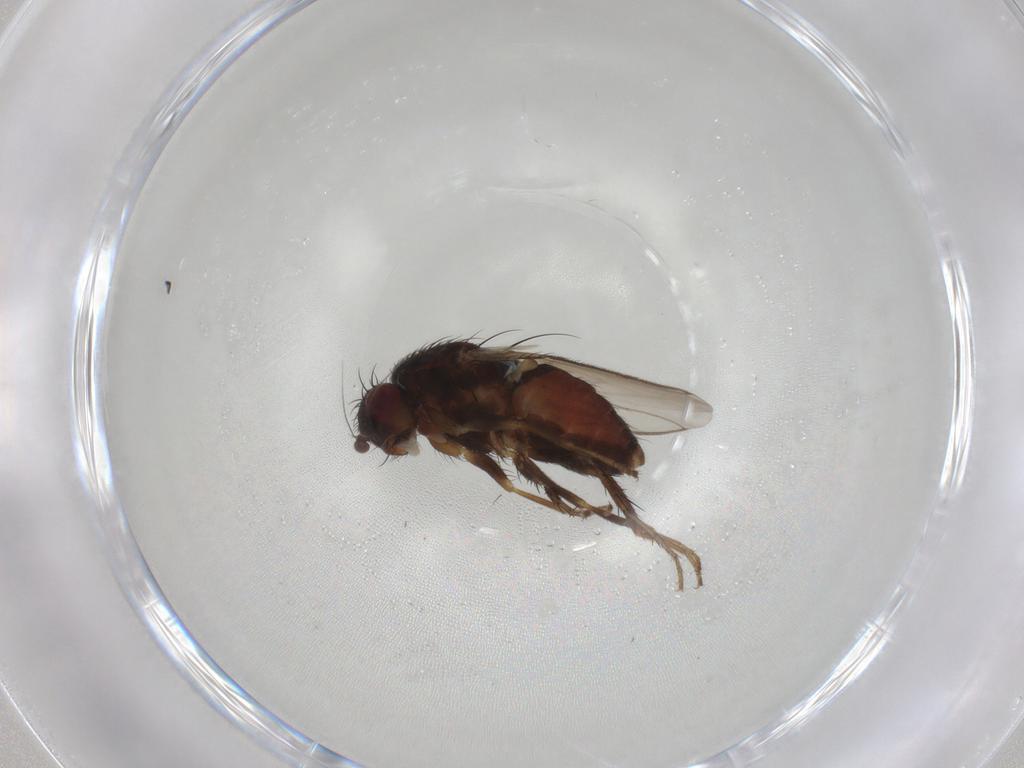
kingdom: Animalia
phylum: Arthropoda
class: Insecta
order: Diptera
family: Sphaeroceridae
